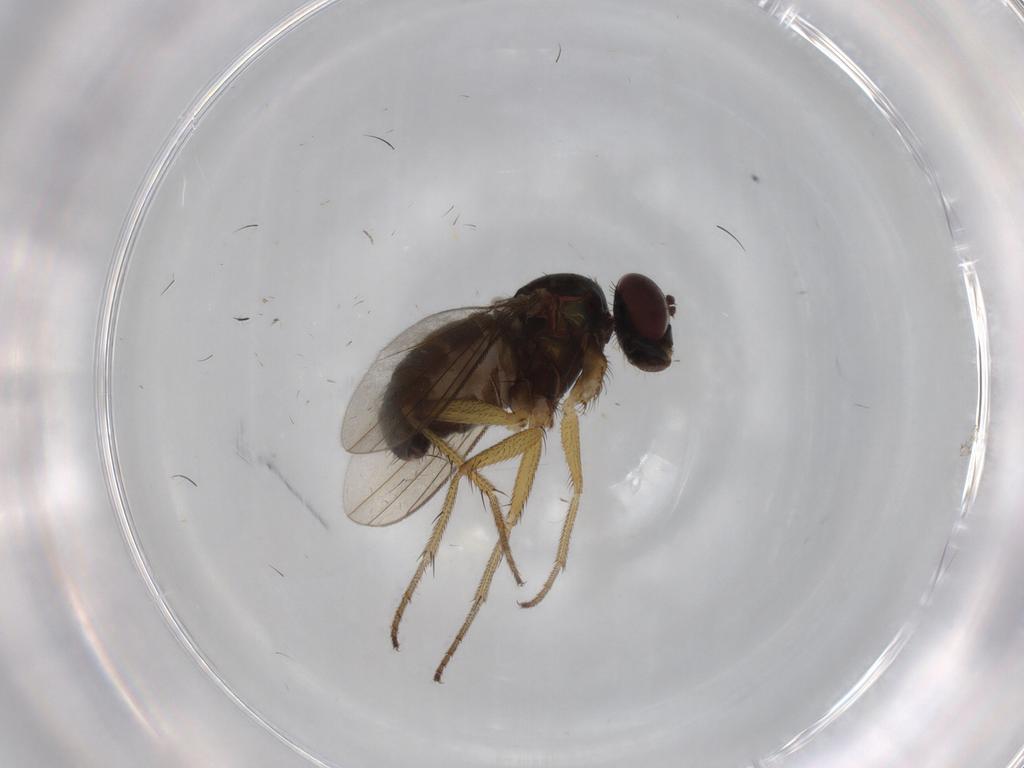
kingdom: Animalia
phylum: Arthropoda
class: Insecta
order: Diptera
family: Dolichopodidae
